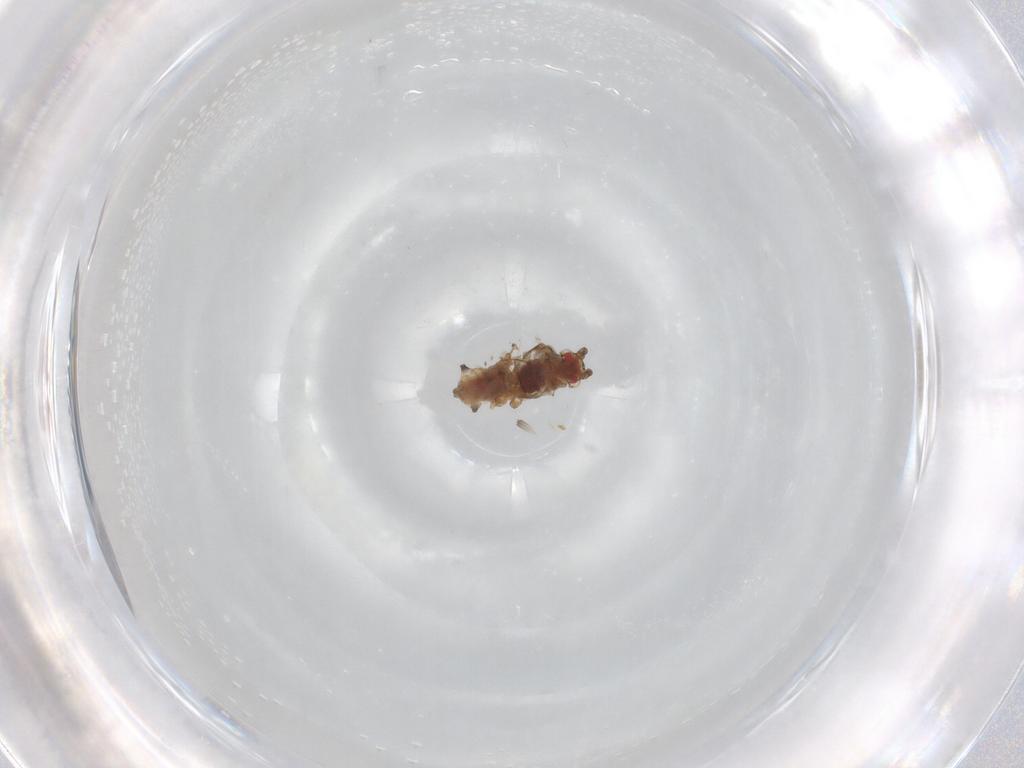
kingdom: Animalia
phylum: Arthropoda
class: Insecta
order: Hemiptera
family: Aphididae
